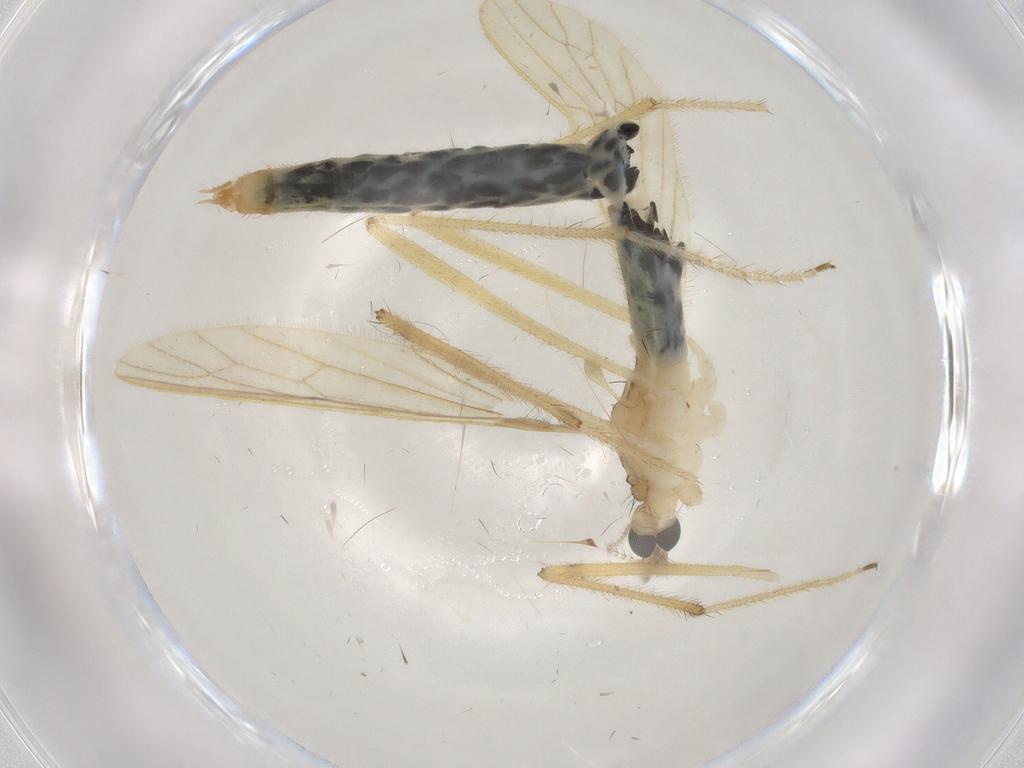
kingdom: Animalia
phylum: Arthropoda
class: Insecta
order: Diptera
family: Limoniidae
